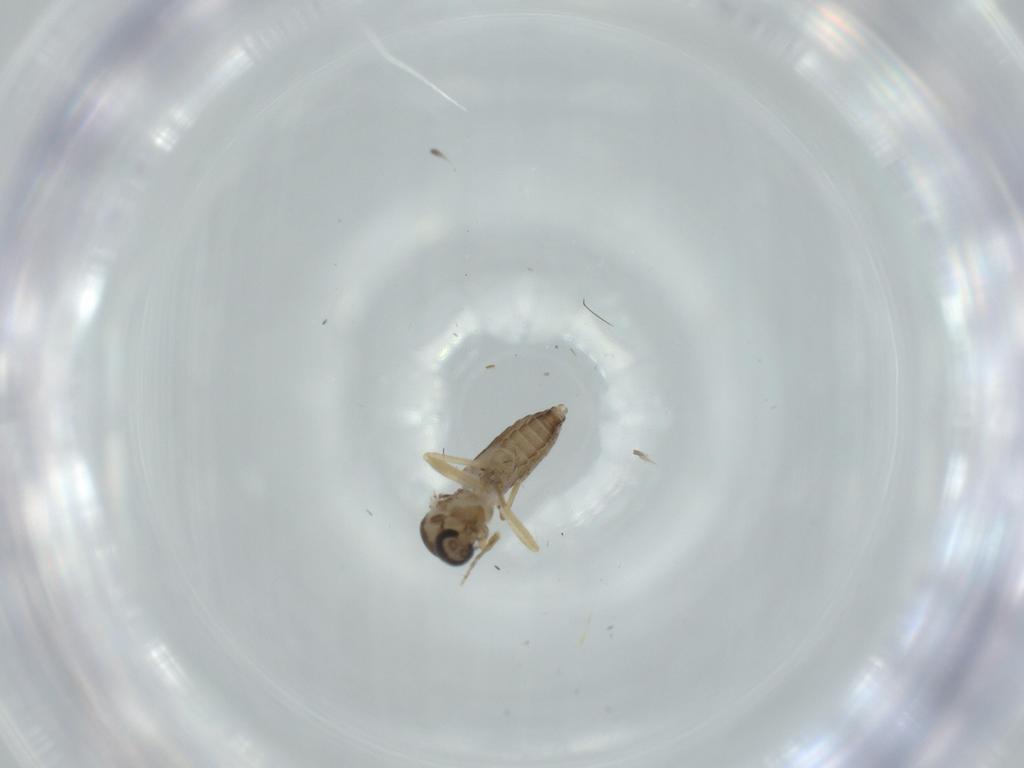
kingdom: Animalia
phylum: Arthropoda
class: Insecta
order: Diptera
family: Ceratopogonidae
